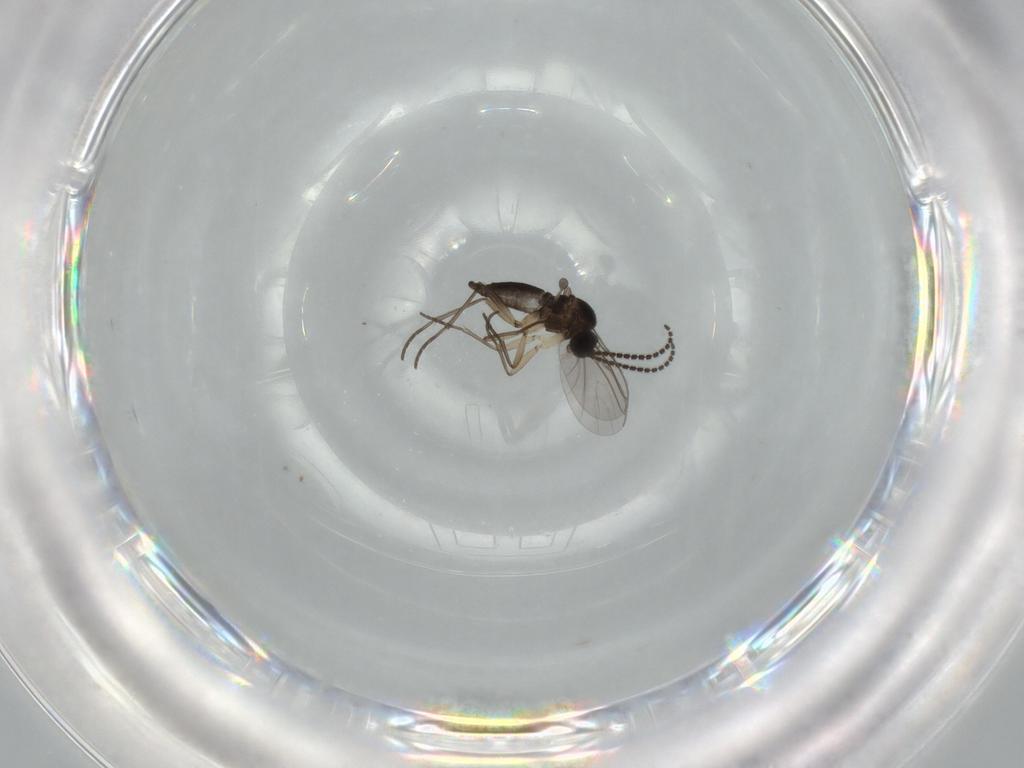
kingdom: Animalia
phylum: Arthropoda
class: Insecta
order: Diptera
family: Sciaridae
